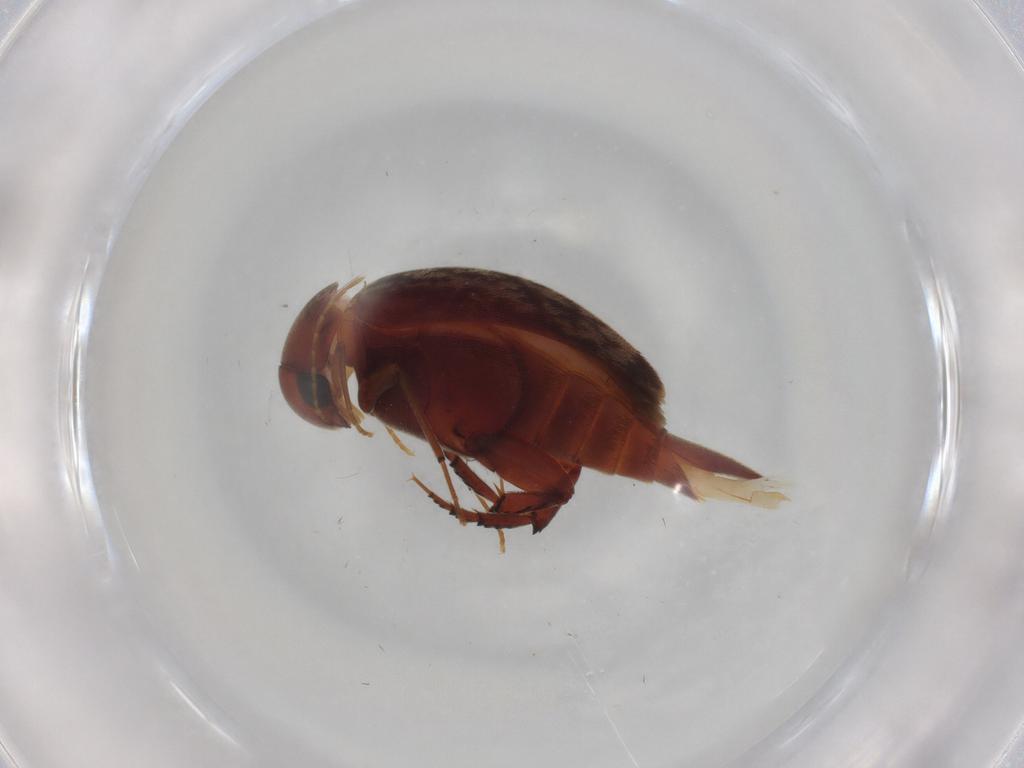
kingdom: Animalia
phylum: Arthropoda
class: Insecta
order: Coleoptera
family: Mordellidae
